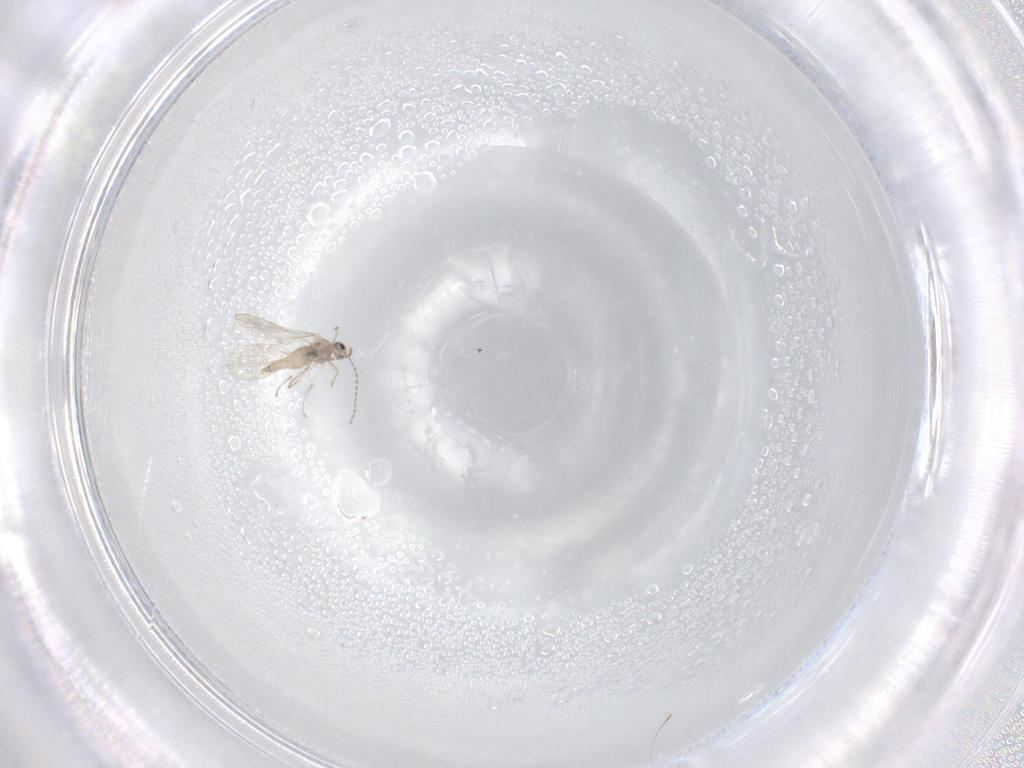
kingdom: Animalia
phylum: Arthropoda
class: Insecta
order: Diptera
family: Cecidomyiidae
